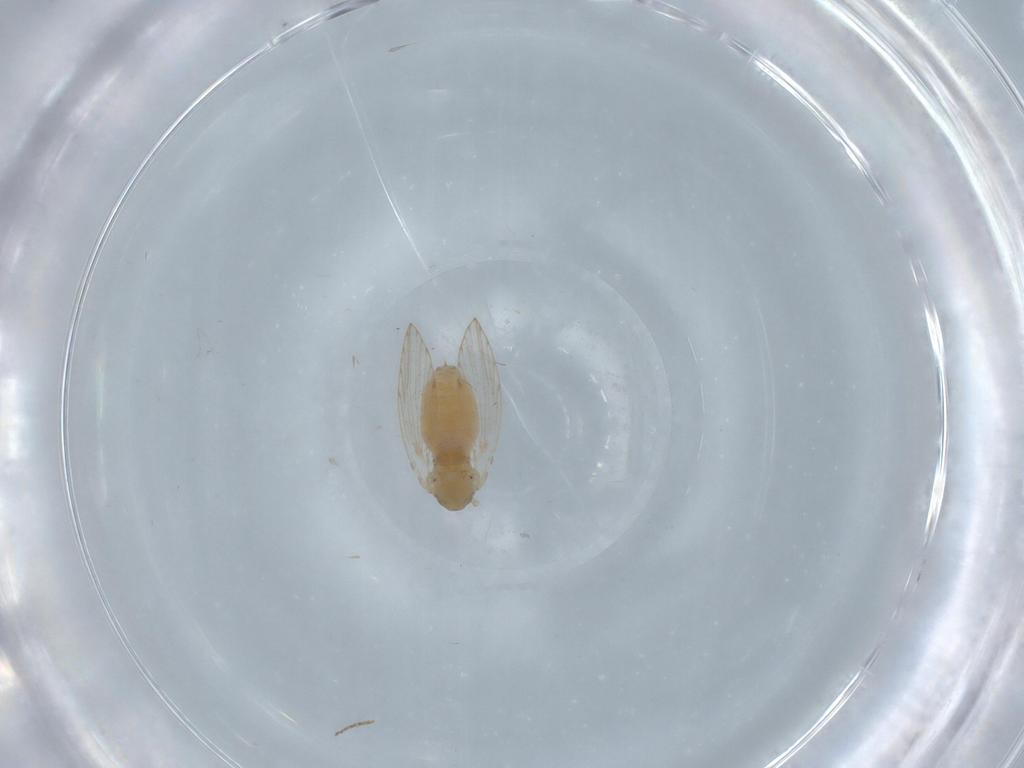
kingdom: Animalia
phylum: Arthropoda
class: Insecta
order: Diptera
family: Psychodidae
